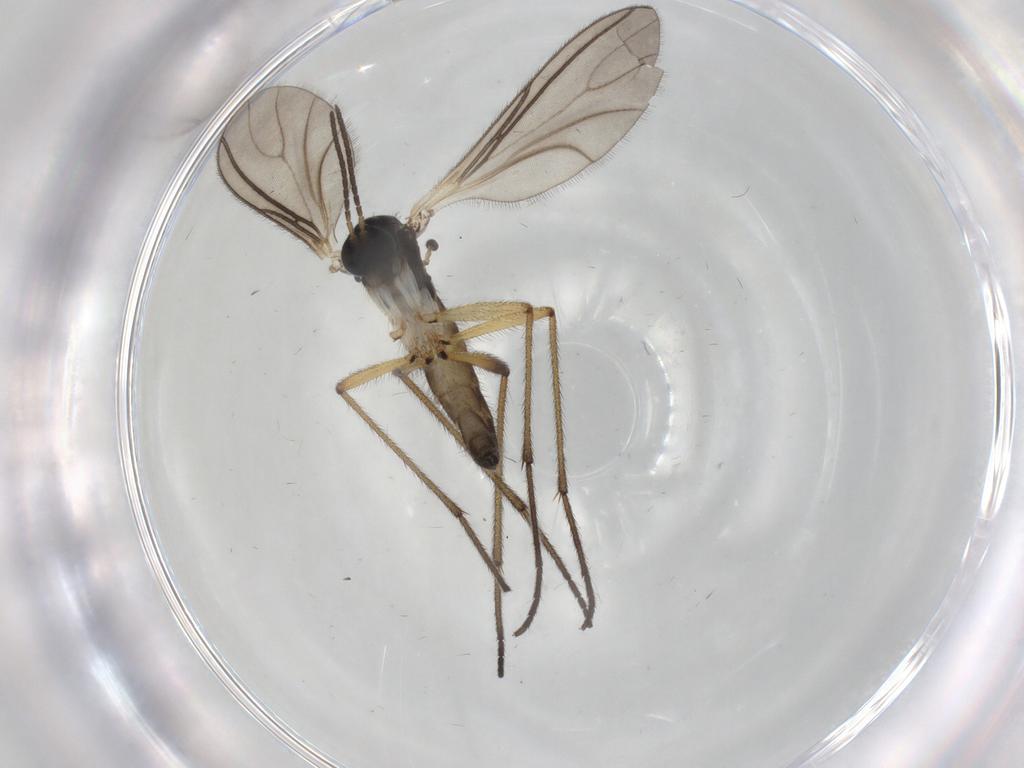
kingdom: Animalia
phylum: Arthropoda
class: Insecta
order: Diptera
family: Sciaridae
